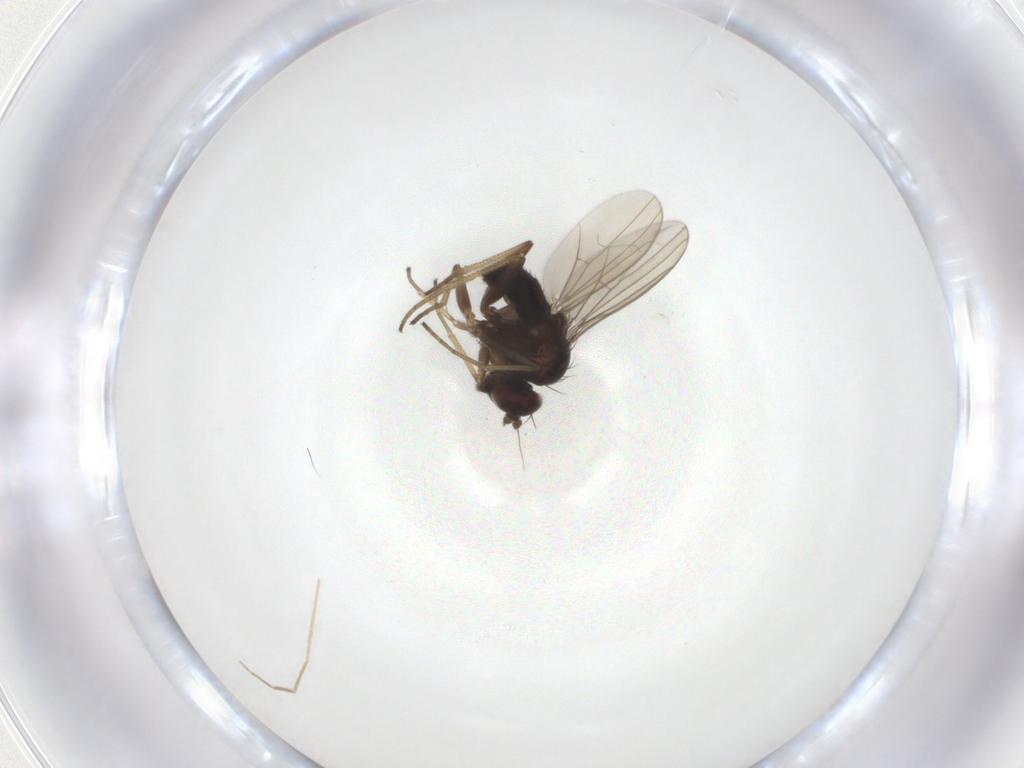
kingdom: Animalia
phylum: Arthropoda
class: Insecta
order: Diptera
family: Dolichopodidae
